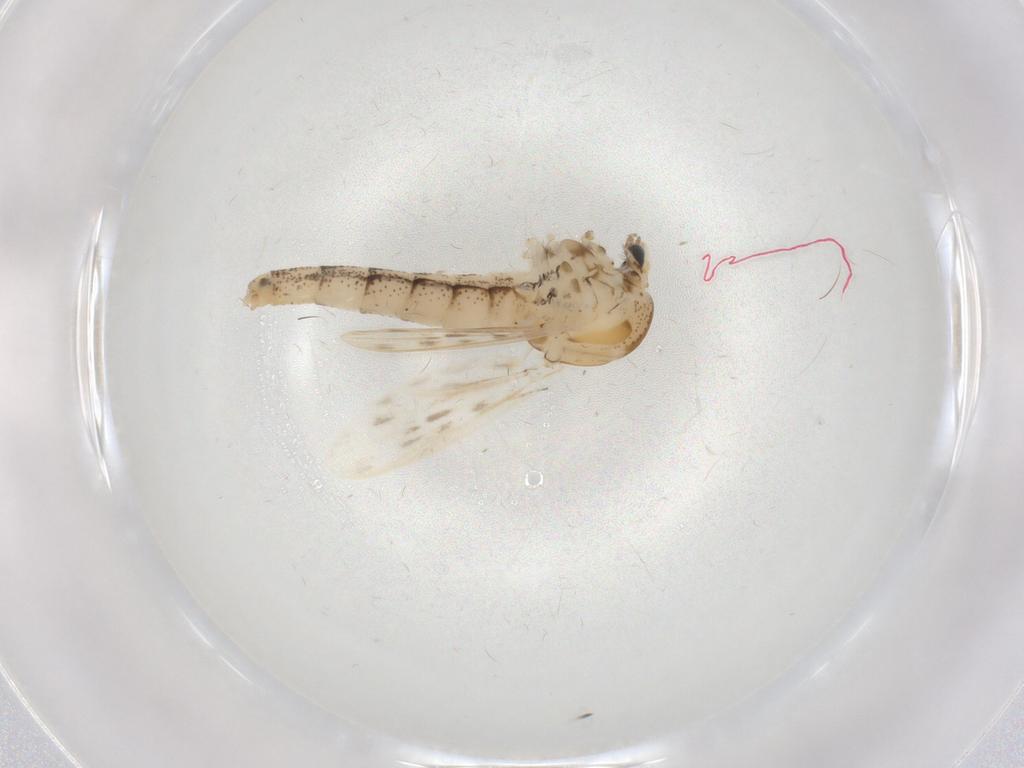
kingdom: Animalia
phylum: Arthropoda
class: Insecta
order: Diptera
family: Chaoboridae
